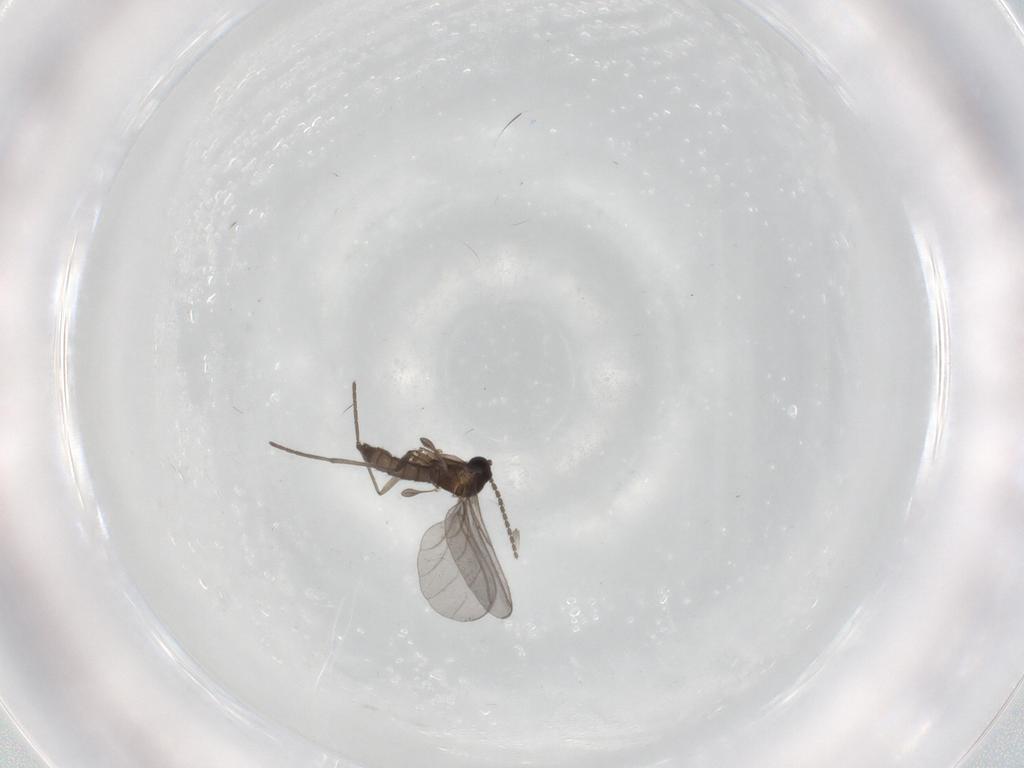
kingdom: Animalia
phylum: Arthropoda
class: Insecta
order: Diptera
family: Sciaridae
